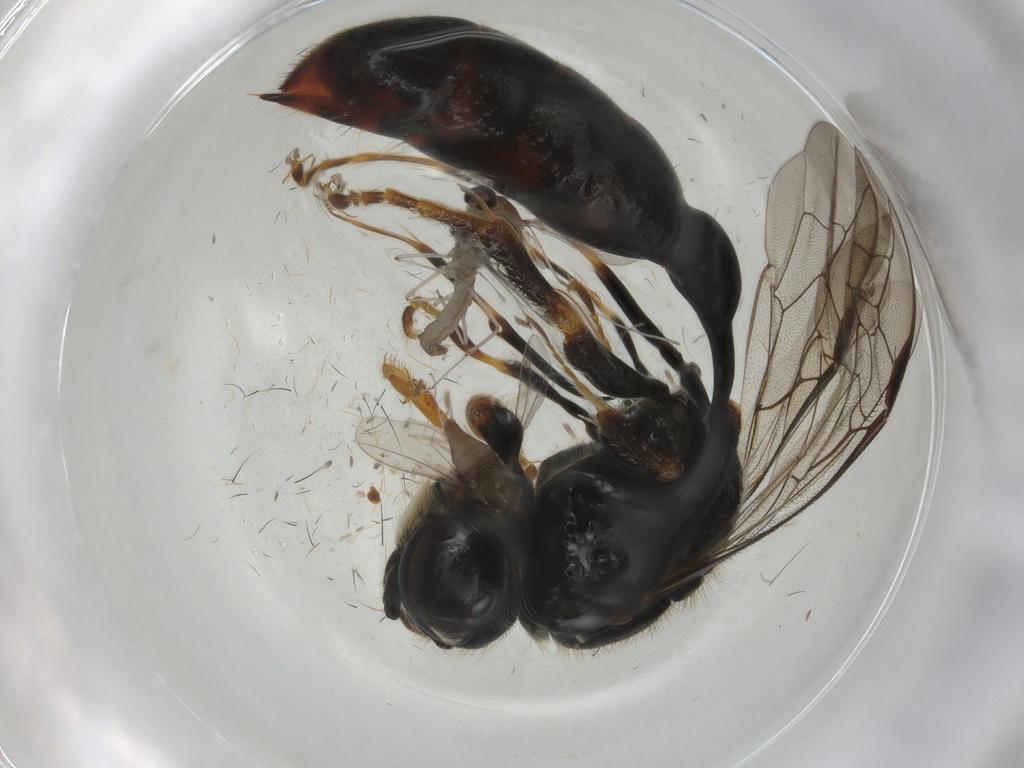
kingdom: Animalia
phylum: Arthropoda
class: Insecta
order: Hymenoptera
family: Psenidae
